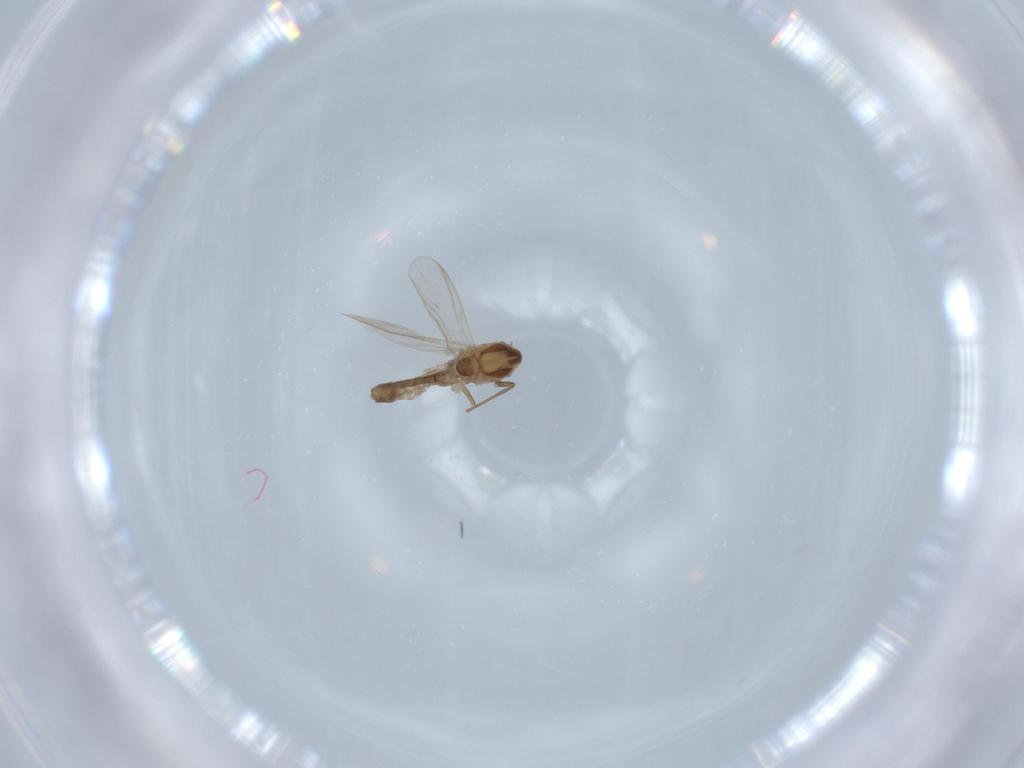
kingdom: Animalia
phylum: Arthropoda
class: Insecta
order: Diptera
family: Chironomidae
